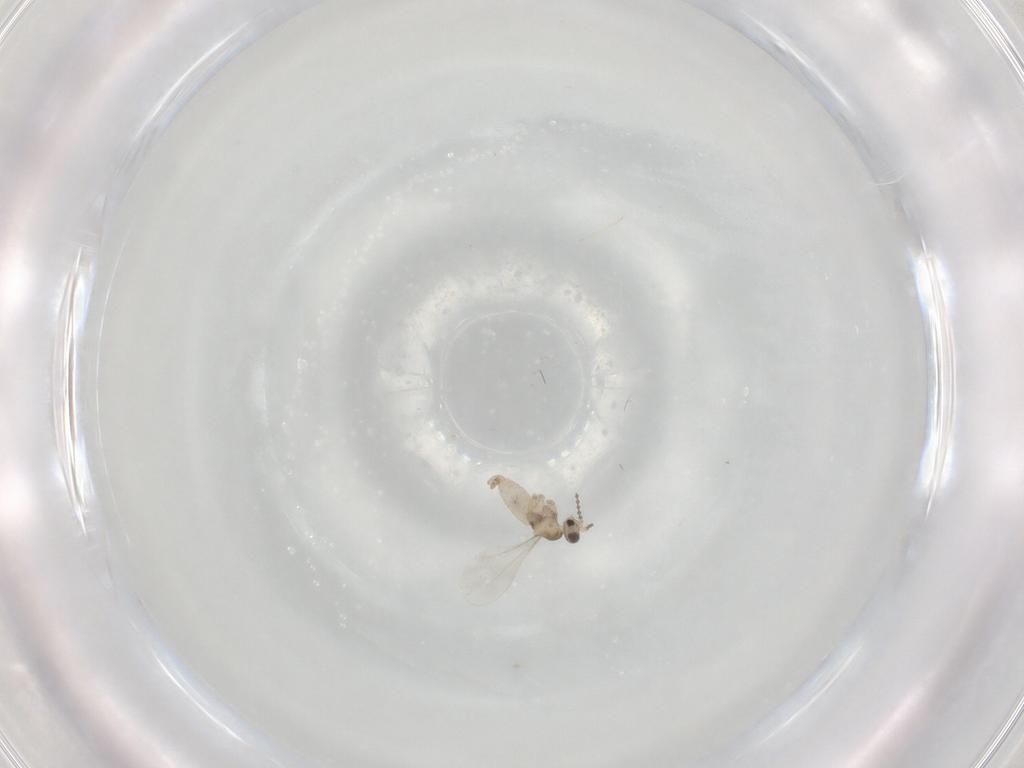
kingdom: Animalia
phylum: Arthropoda
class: Insecta
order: Diptera
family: Cecidomyiidae
